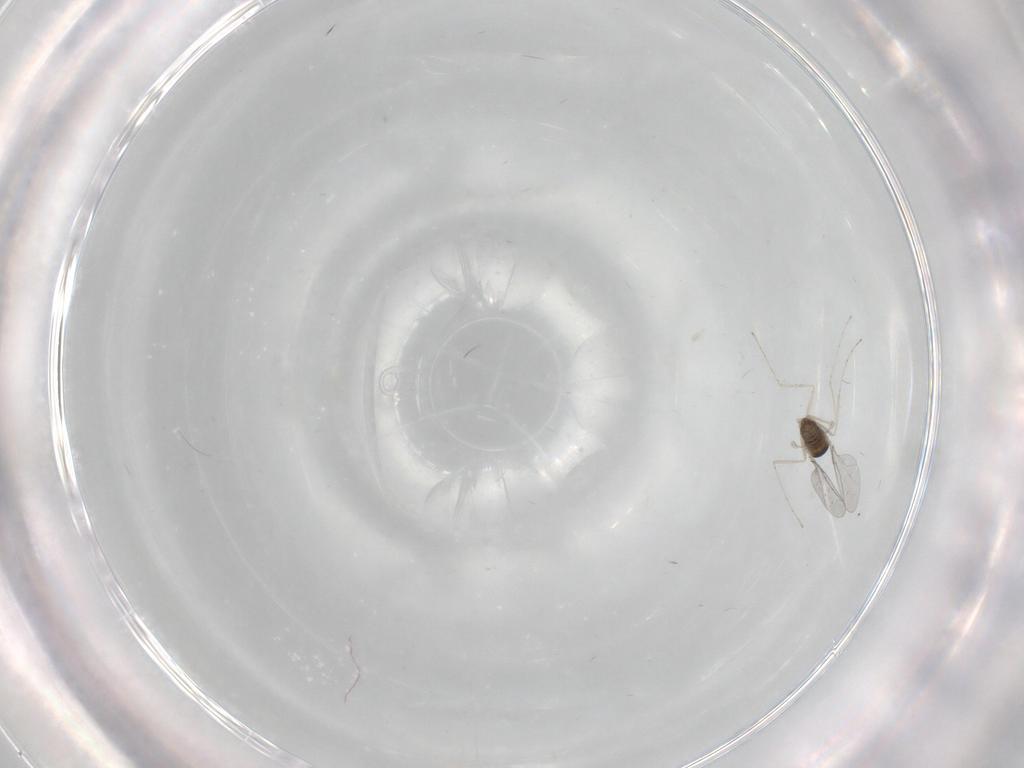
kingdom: Animalia
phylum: Arthropoda
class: Insecta
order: Diptera
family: Cecidomyiidae
